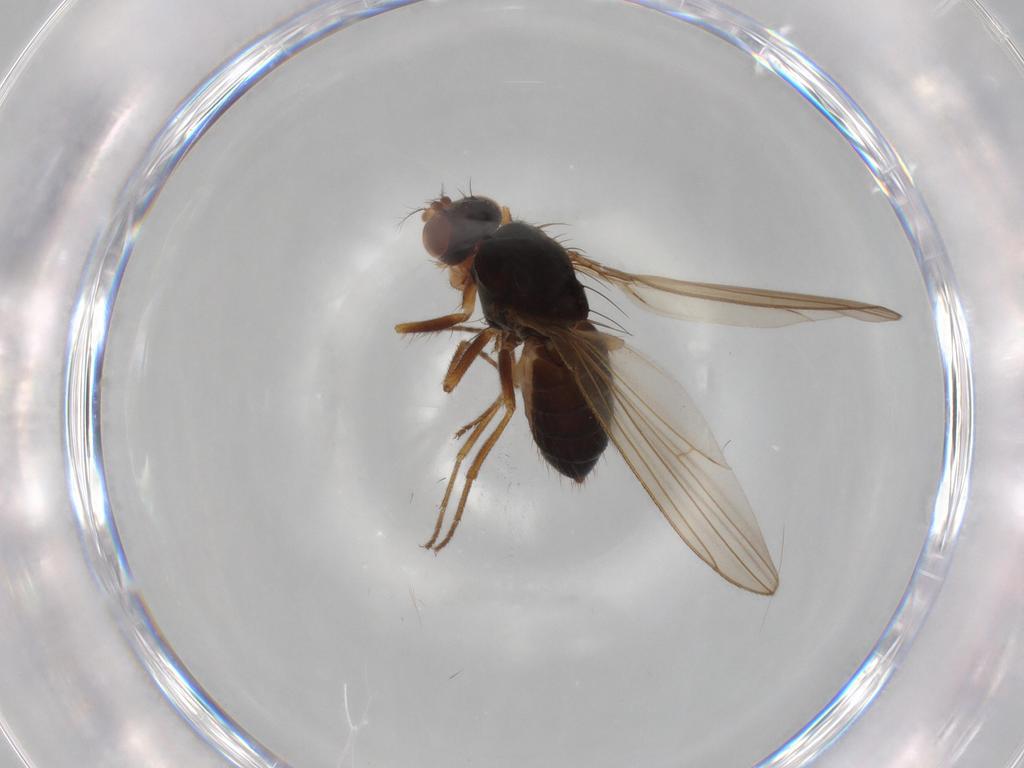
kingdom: Animalia
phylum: Arthropoda
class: Insecta
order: Diptera
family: Drosophilidae
